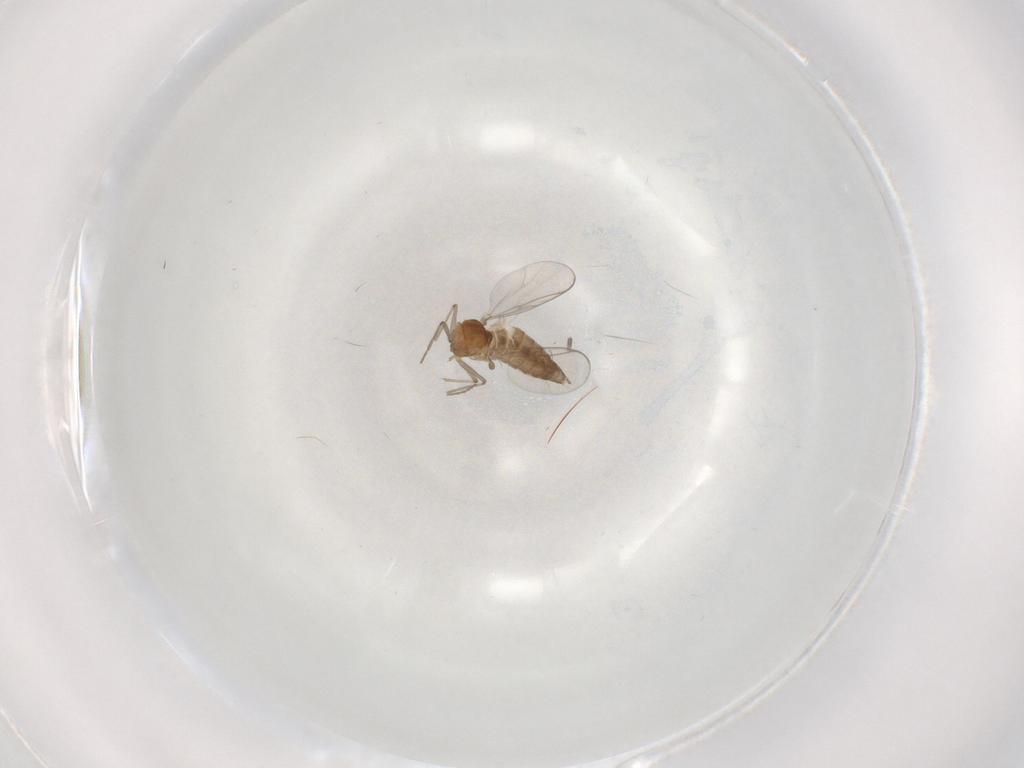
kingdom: Animalia
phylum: Arthropoda
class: Insecta
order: Diptera
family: Chironomidae
